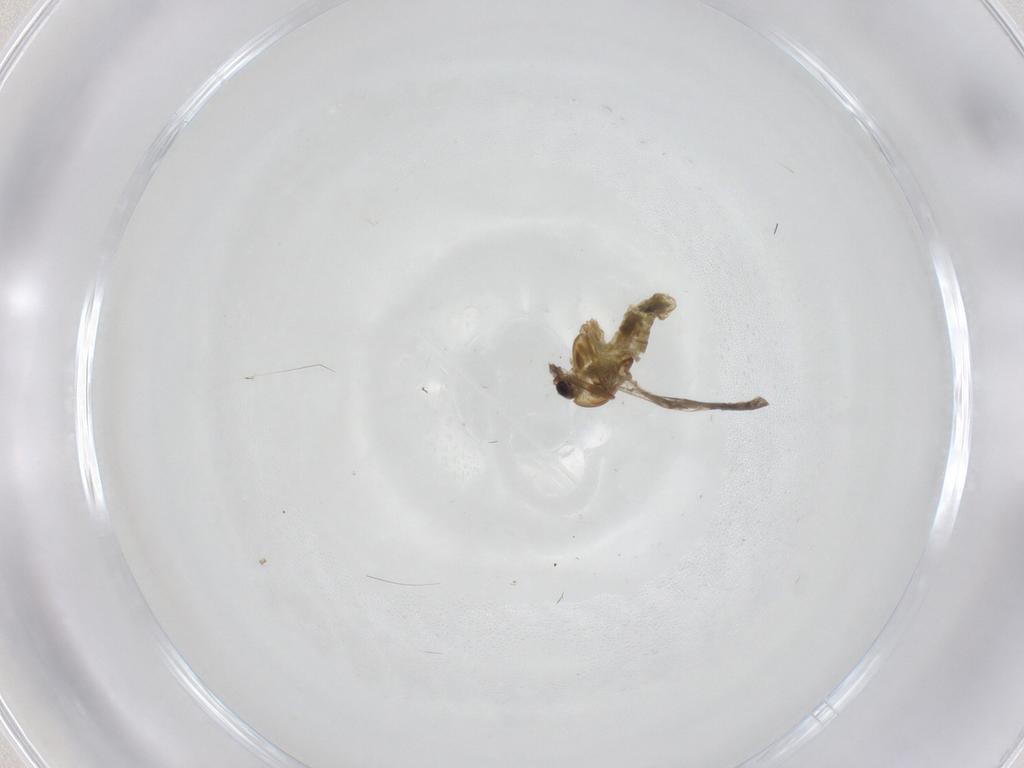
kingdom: Animalia
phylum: Arthropoda
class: Insecta
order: Diptera
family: Chironomidae
